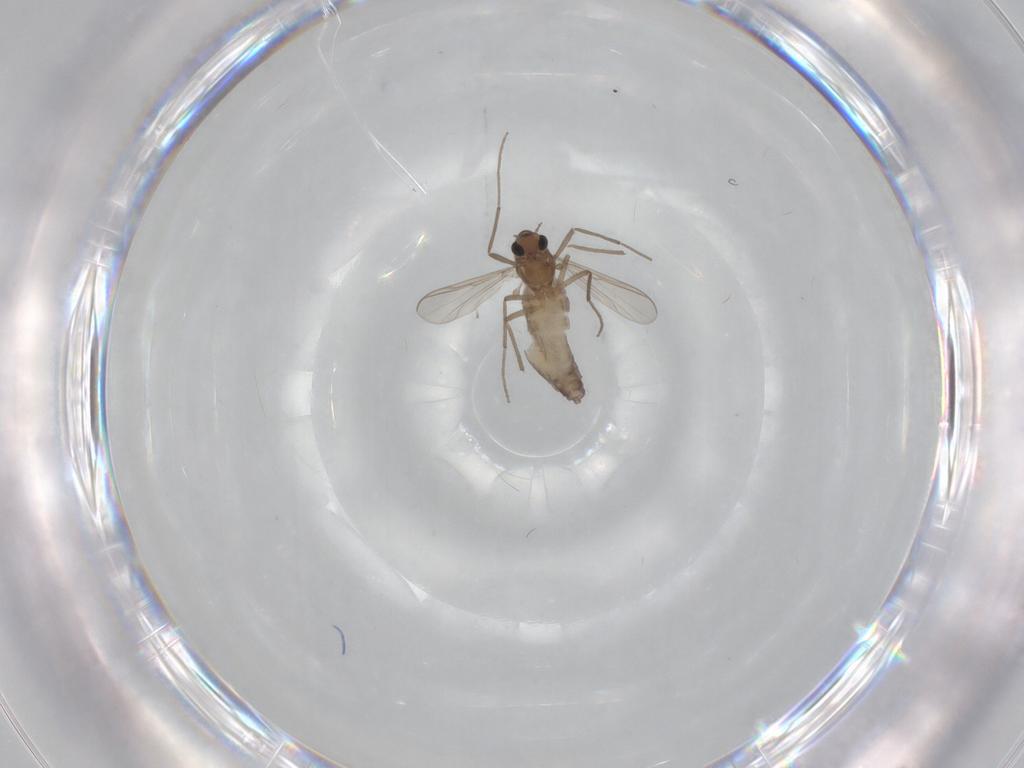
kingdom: Animalia
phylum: Arthropoda
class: Insecta
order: Diptera
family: Chironomidae
